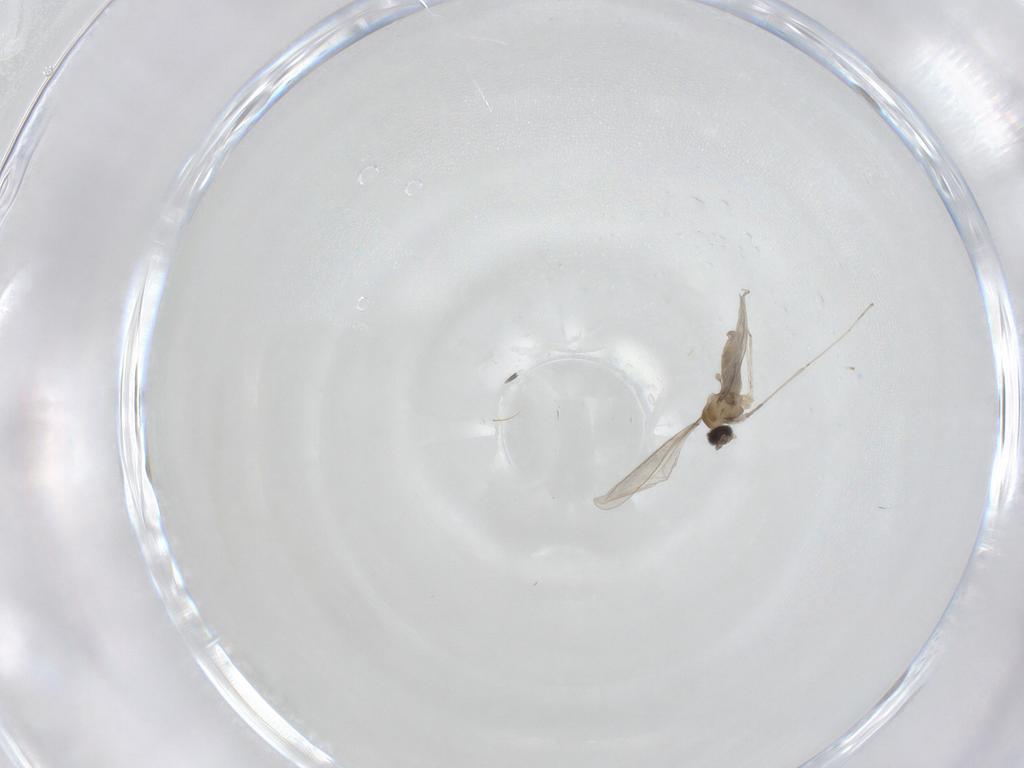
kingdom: Animalia
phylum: Arthropoda
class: Insecta
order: Diptera
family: Cecidomyiidae
